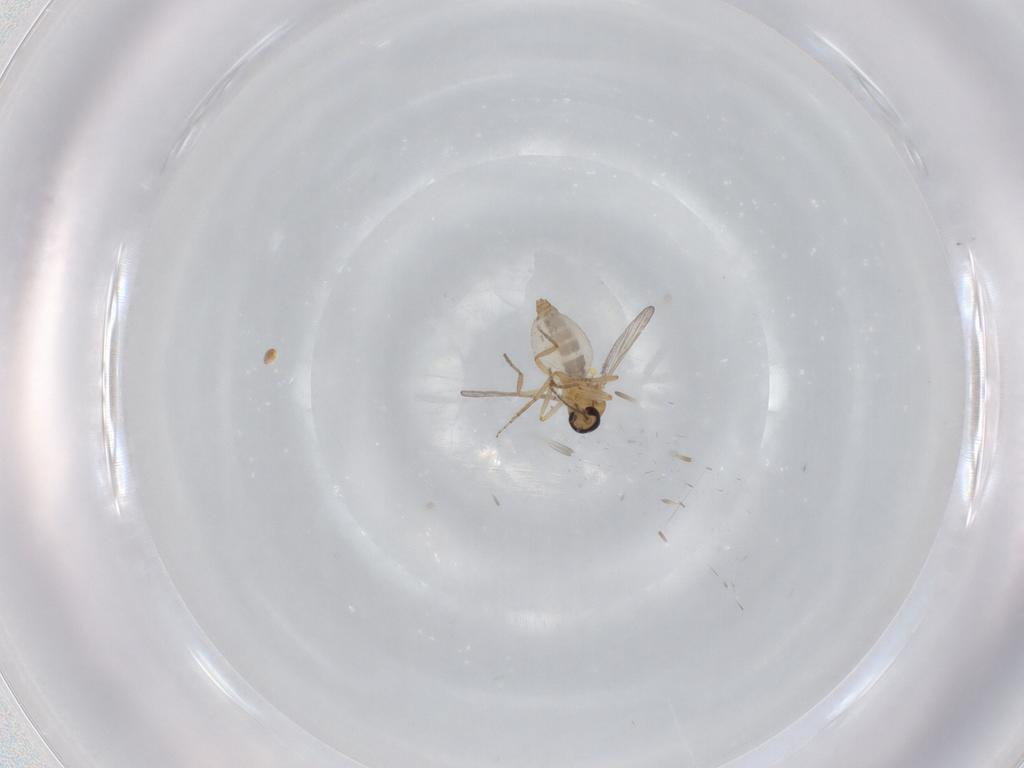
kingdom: Animalia
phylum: Arthropoda
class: Insecta
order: Diptera
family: Ceratopogonidae
